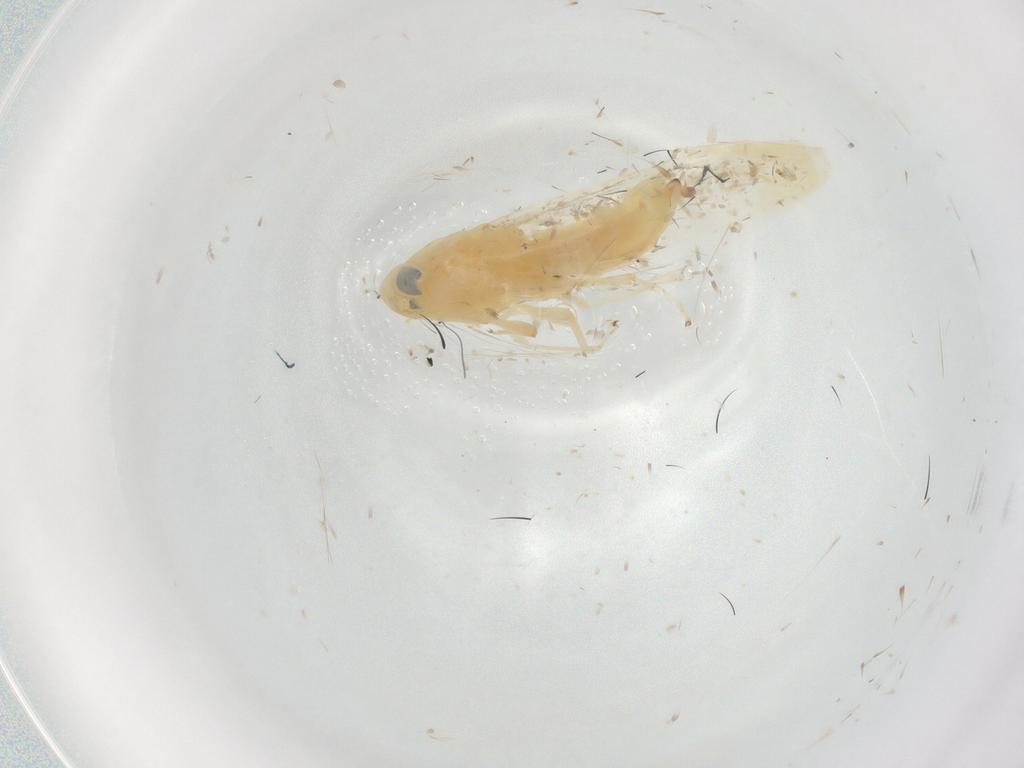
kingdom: Animalia
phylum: Arthropoda
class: Insecta
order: Hemiptera
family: Cicadellidae
